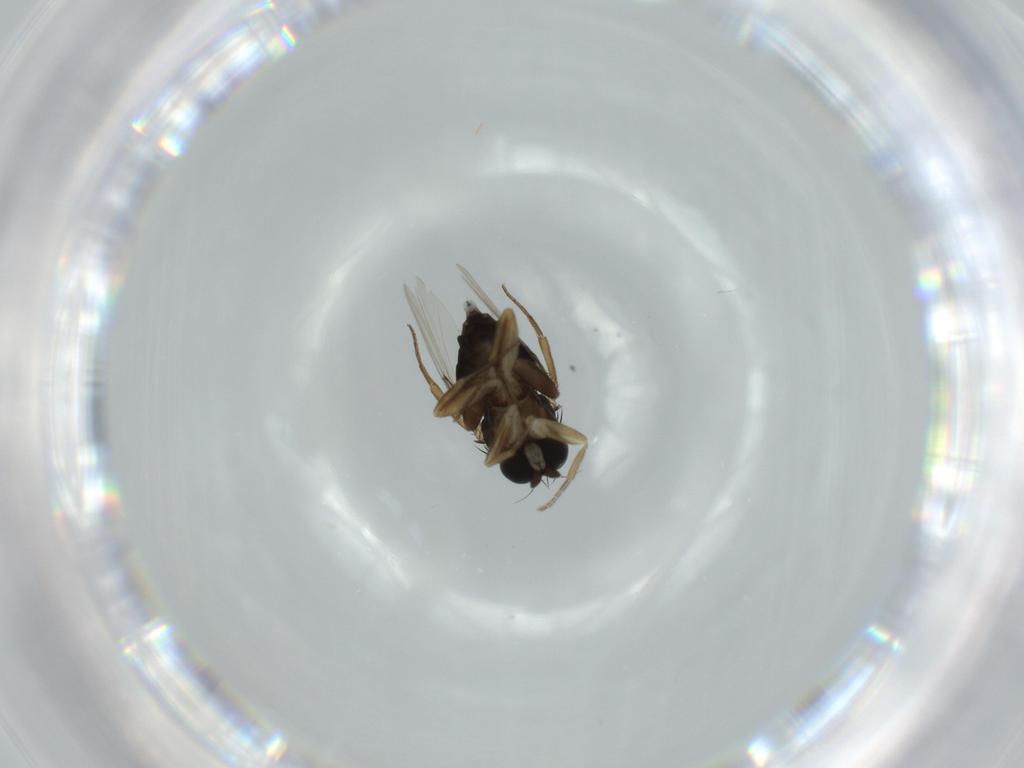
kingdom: Animalia
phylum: Arthropoda
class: Insecta
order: Diptera
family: Phoridae
